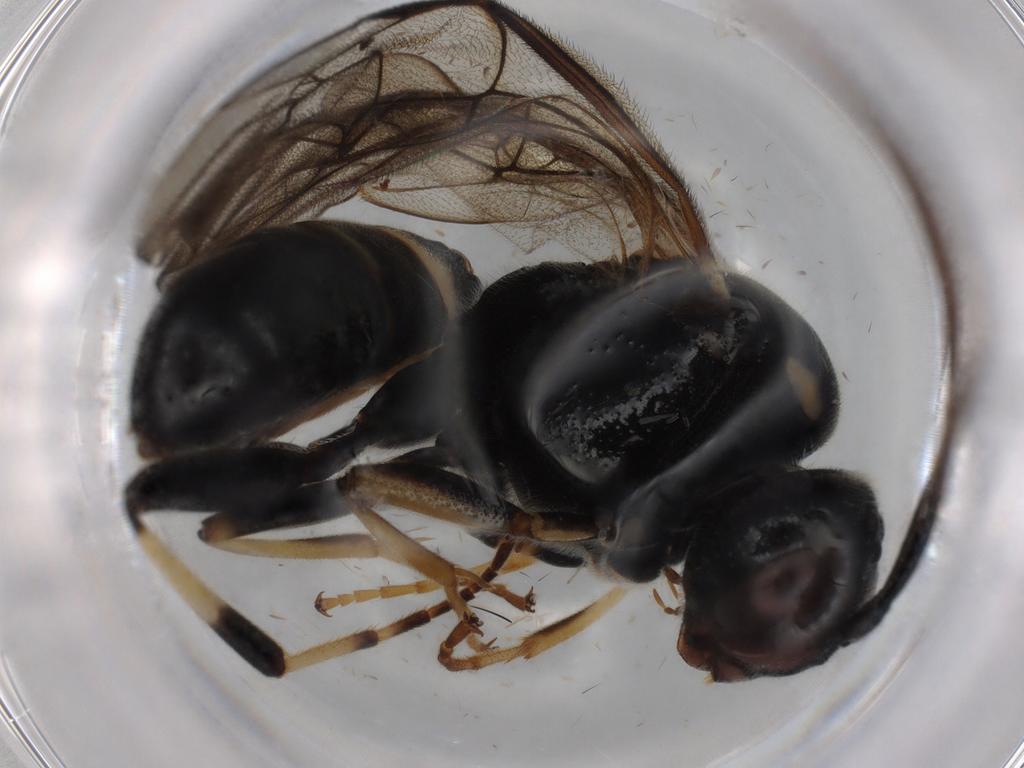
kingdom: Animalia
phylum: Arthropoda
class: Insecta
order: Hymenoptera
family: Ichneumonidae
